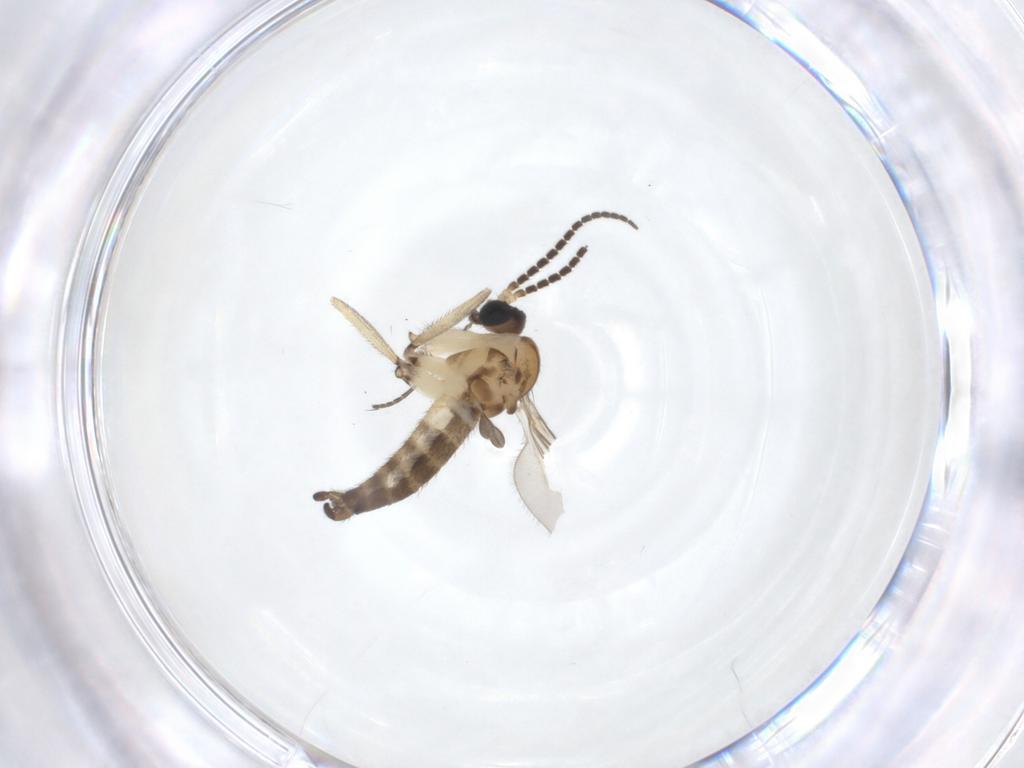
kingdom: Animalia
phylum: Arthropoda
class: Insecta
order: Diptera
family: Sciaridae
